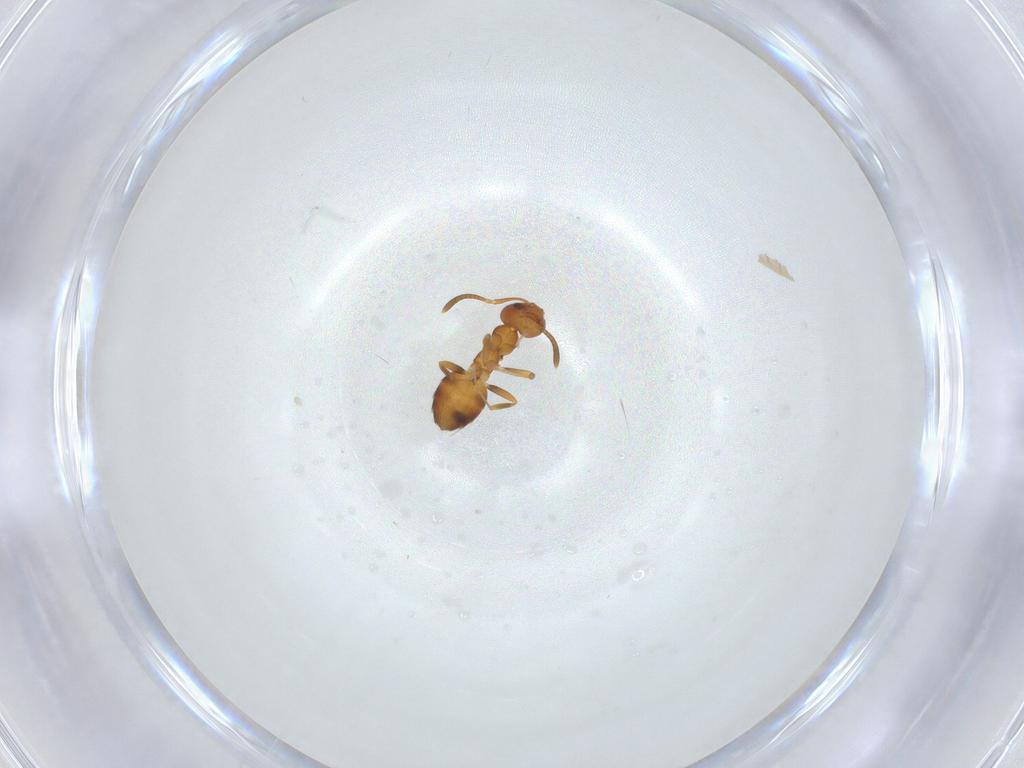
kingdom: Animalia
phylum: Arthropoda
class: Insecta
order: Hymenoptera
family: Formicidae
